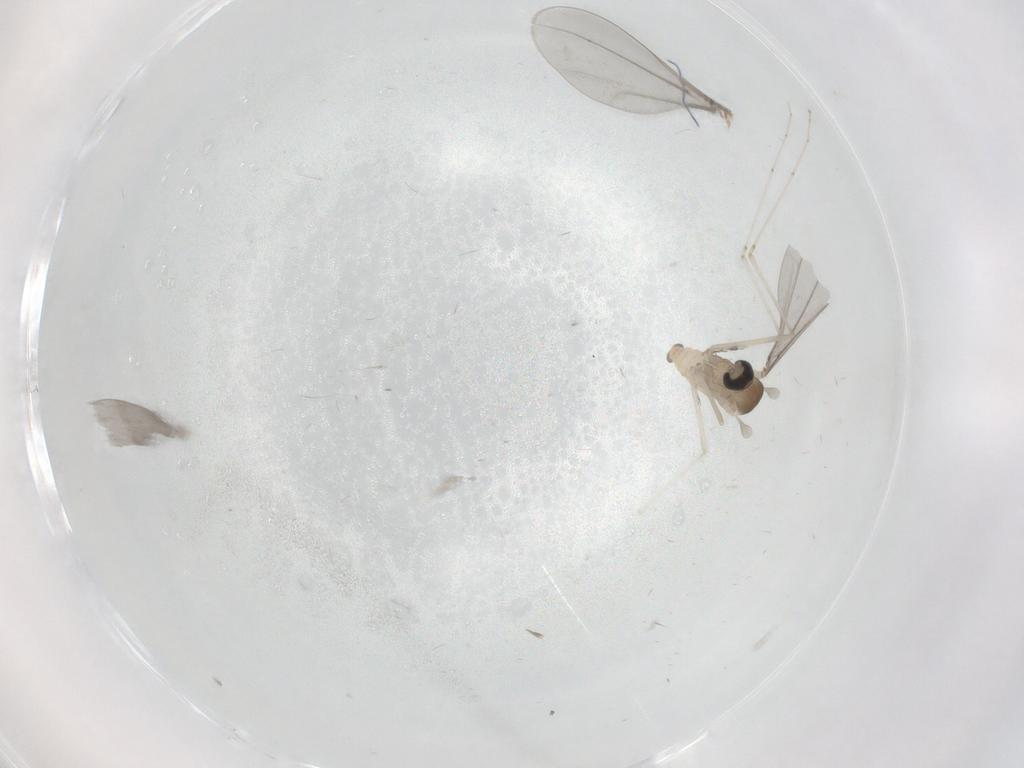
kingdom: Animalia
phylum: Arthropoda
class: Insecta
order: Diptera
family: Cecidomyiidae
